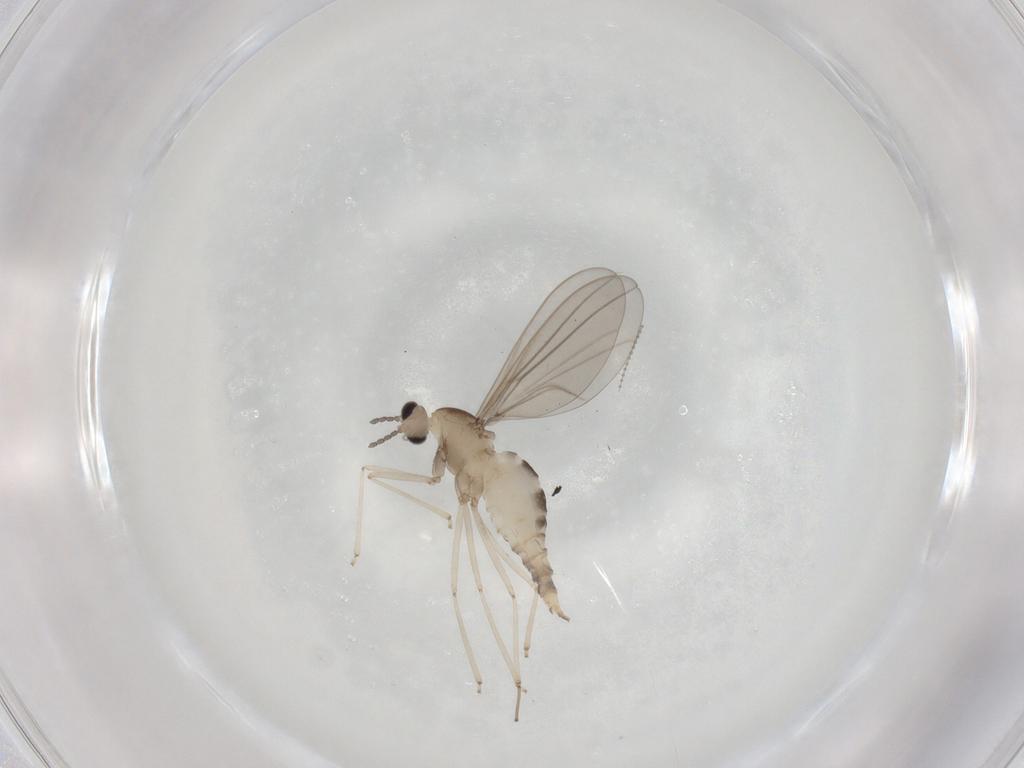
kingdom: Animalia
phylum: Arthropoda
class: Insecta
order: Diptera
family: Cecidomyiidae
